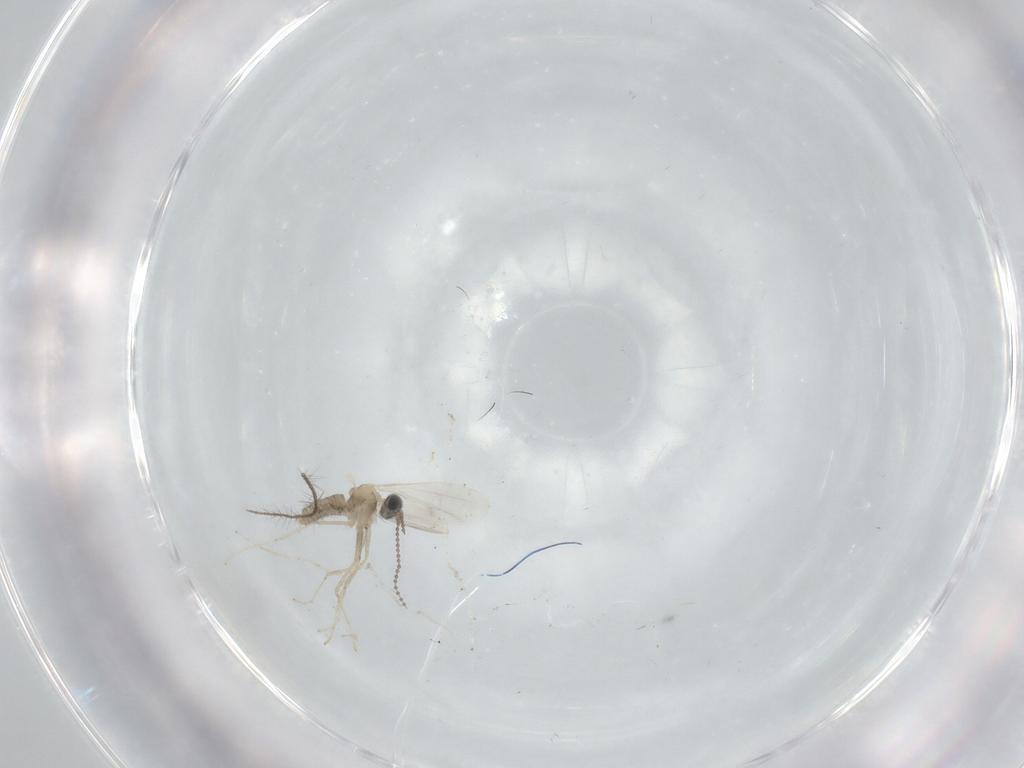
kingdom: Animalia
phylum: Arthropoda
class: Insecta
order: Diptera
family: Cecidomyiidae
